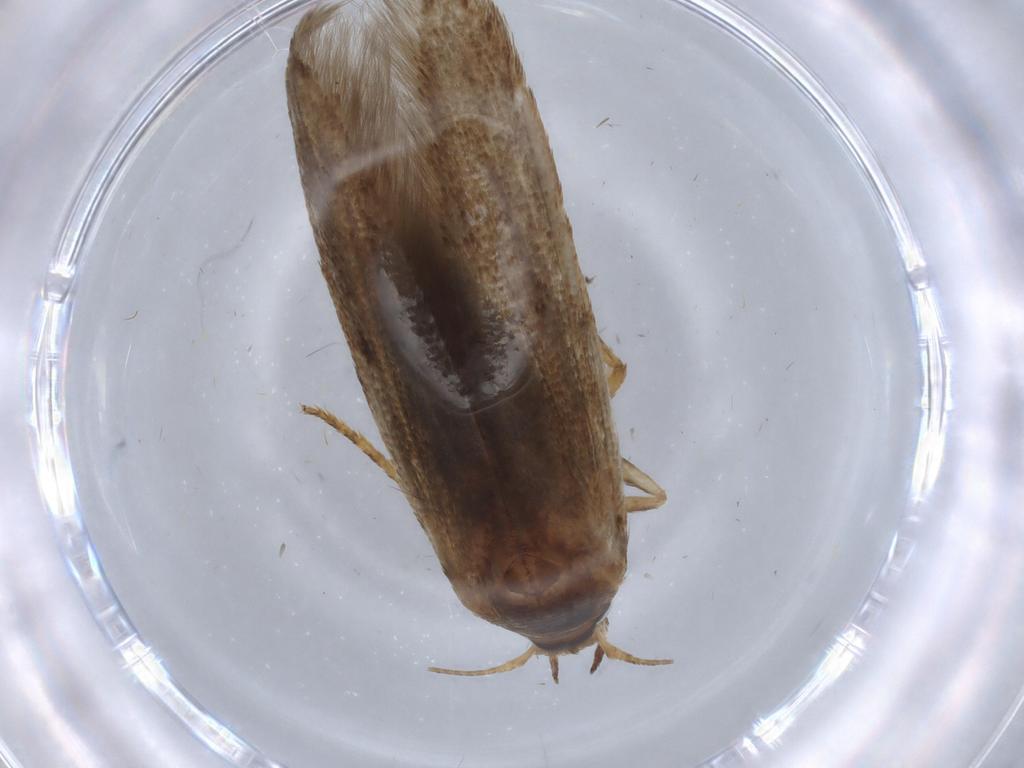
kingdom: Animalia
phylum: Arthropoda
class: Insecta
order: Lepidoptera
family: Blastobasidae
